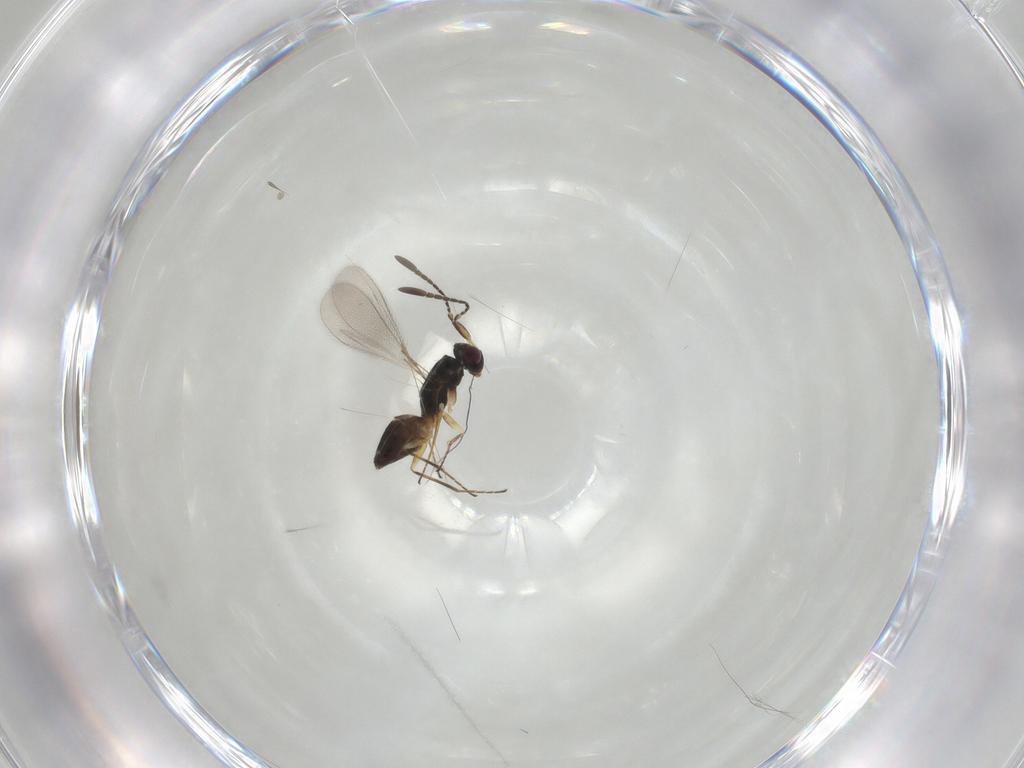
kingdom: Animalia
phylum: Arthropoda
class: Insecta
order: Hymenoptera
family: Mymaridae
